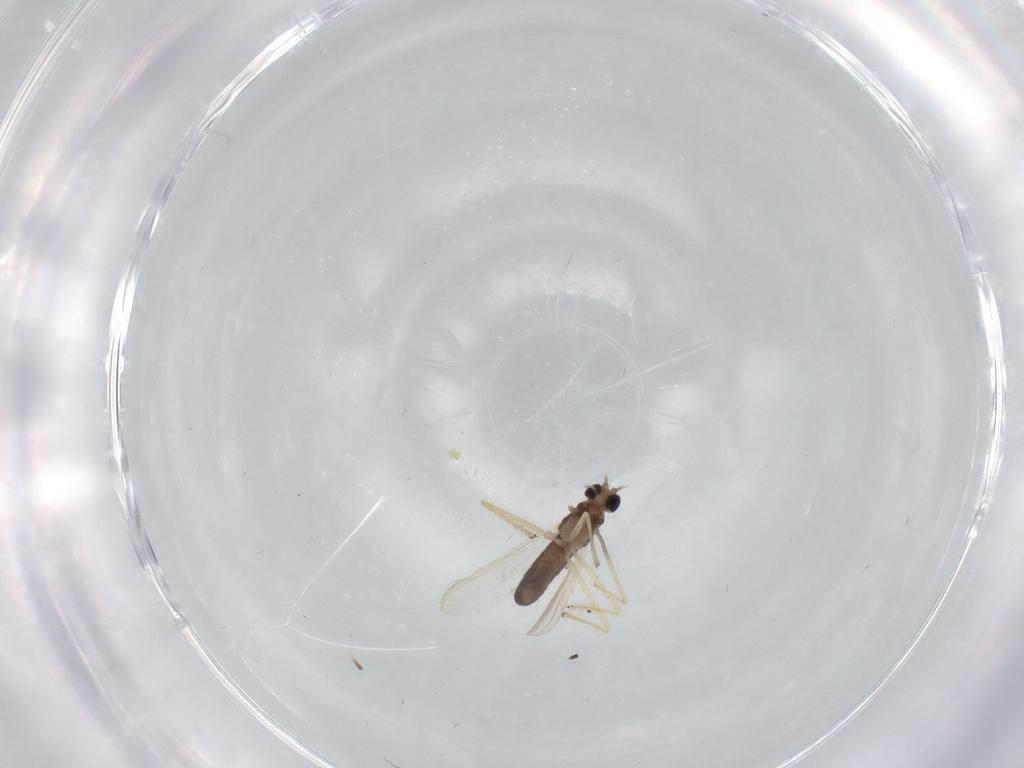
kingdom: Animalia
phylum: Arthropoda
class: Insecta
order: Diptera
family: Chironomidae
